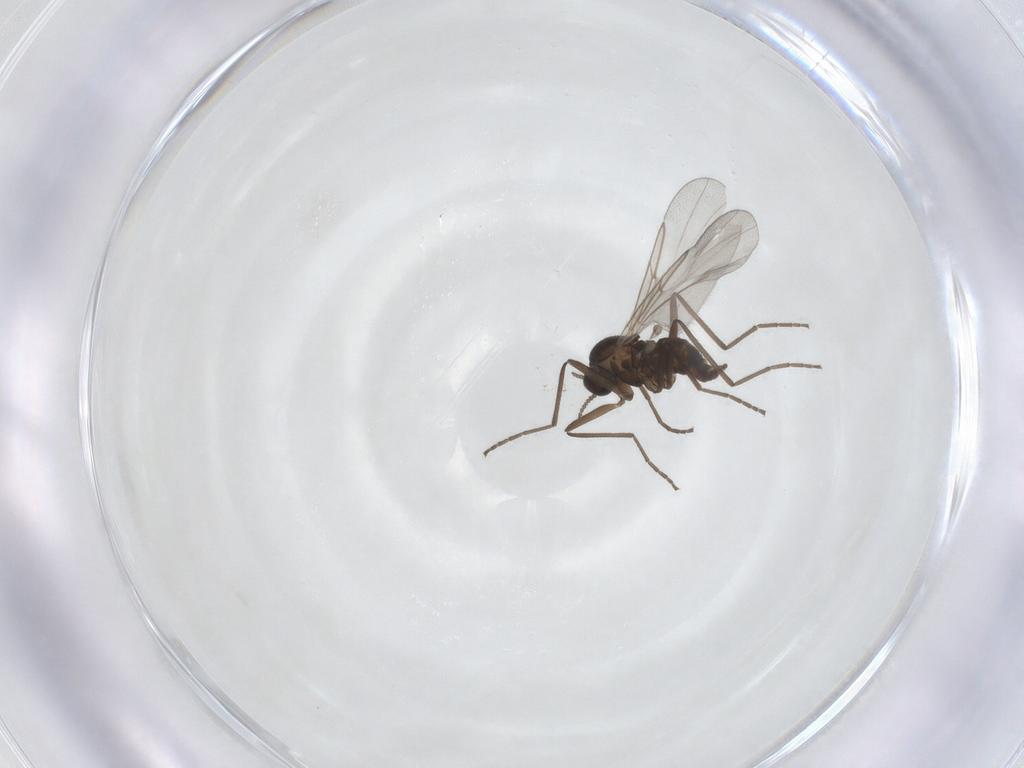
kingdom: Animalia
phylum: Arthropoda
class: Insecta
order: Diptera
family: Cecidomyiidae
